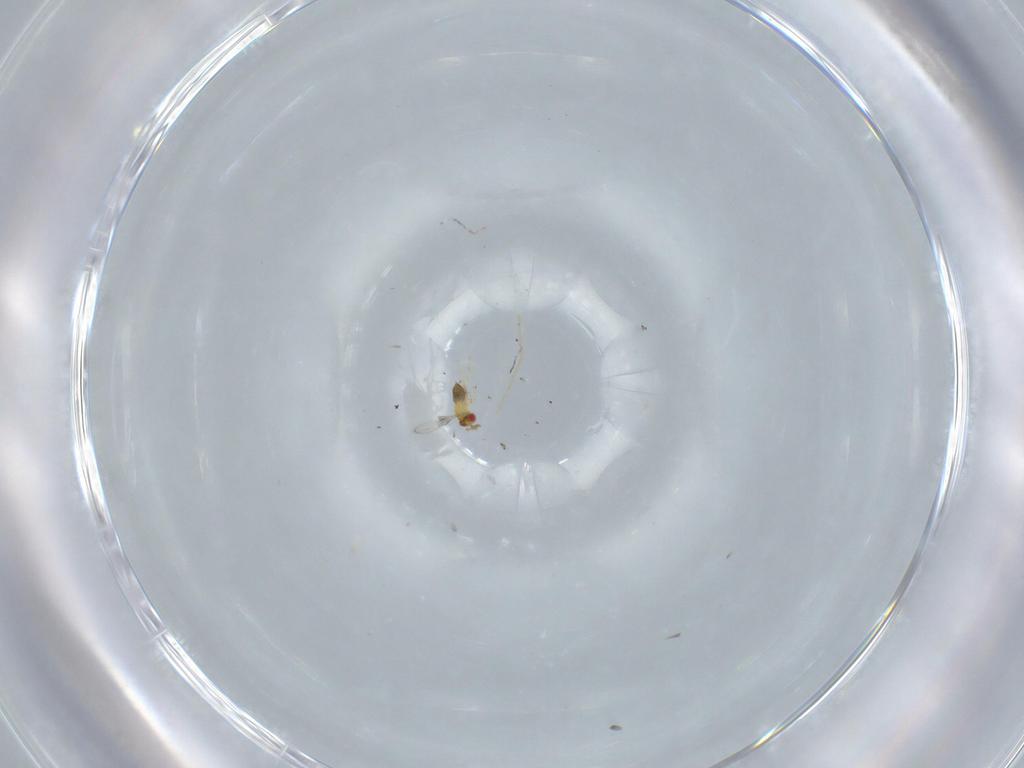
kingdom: Animalia
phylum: Arthropoda
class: Insecta
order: Hymenoptera
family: Trichogrammatidae
